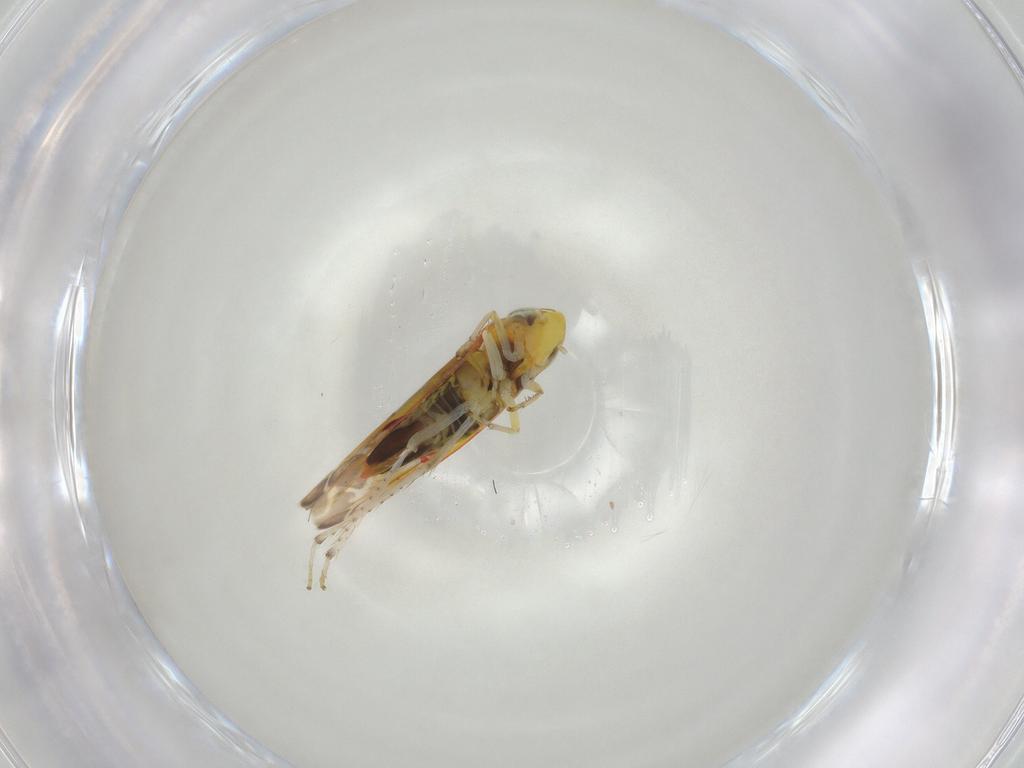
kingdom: Animalia
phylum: Arthropoda
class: Insecta
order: Hemiptera
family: Cicadellidae
